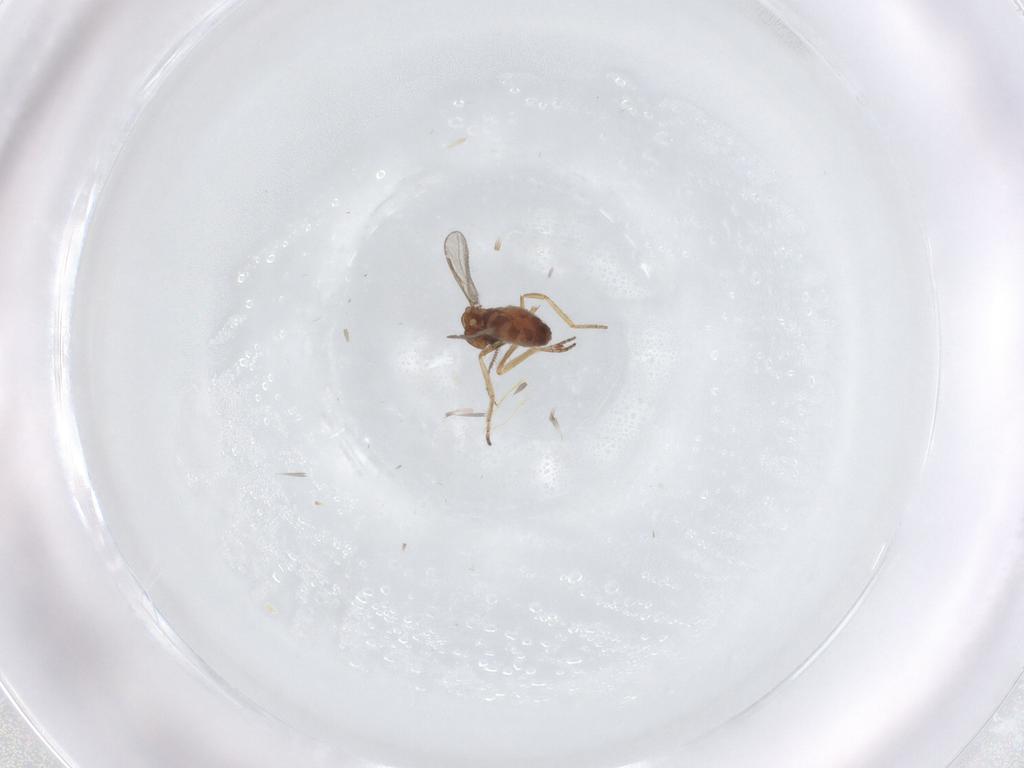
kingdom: Animalia
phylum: Arthropoda
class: Insecta
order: Diptera
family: Ceratopogonidae
